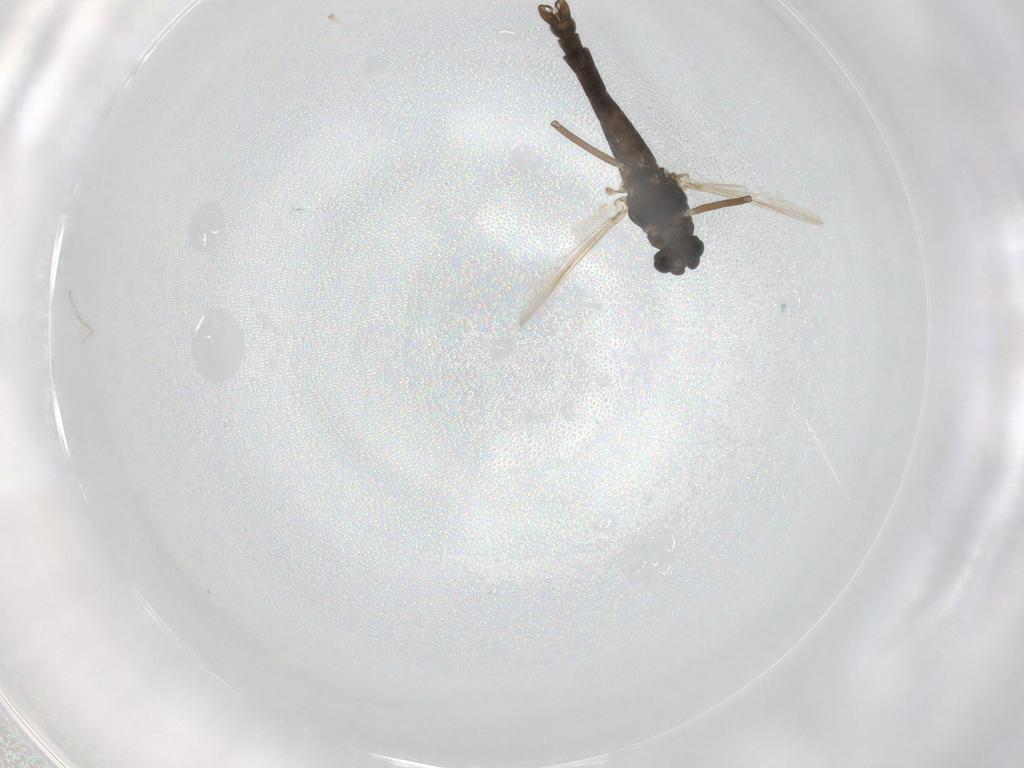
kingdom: Animalia
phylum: Arthropoda
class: Insecta
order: Diptera
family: Chironomidae
